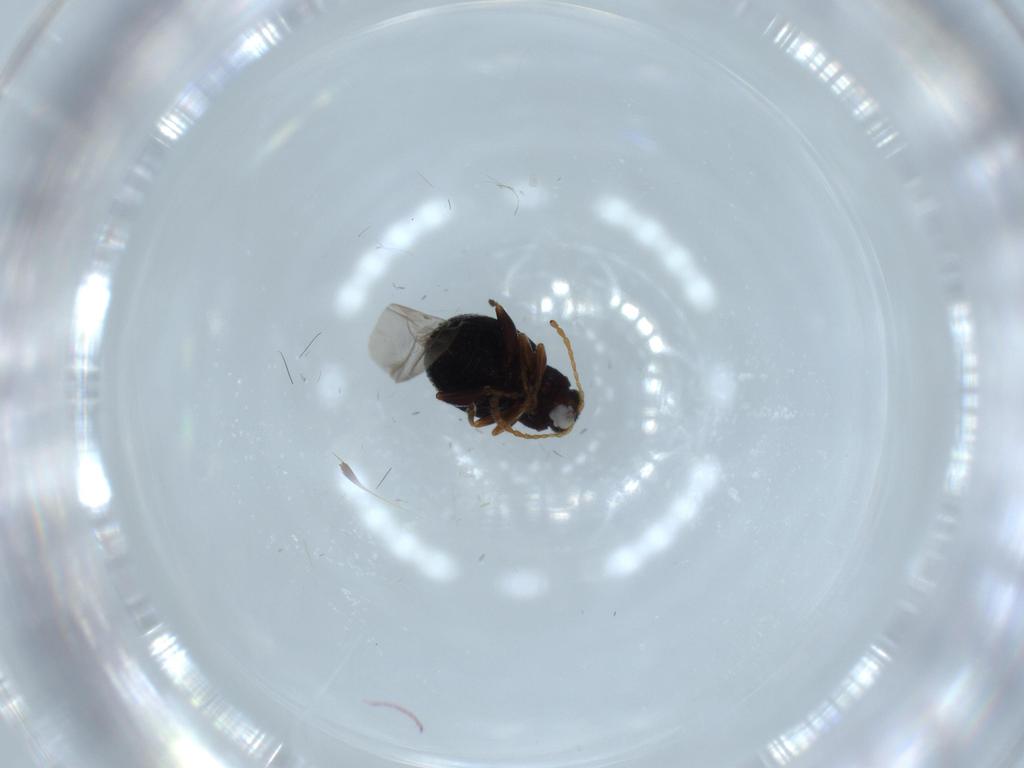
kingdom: Animalia
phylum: Arthropoda
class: Insecta
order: Coleoptera
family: Chrysomelidae
